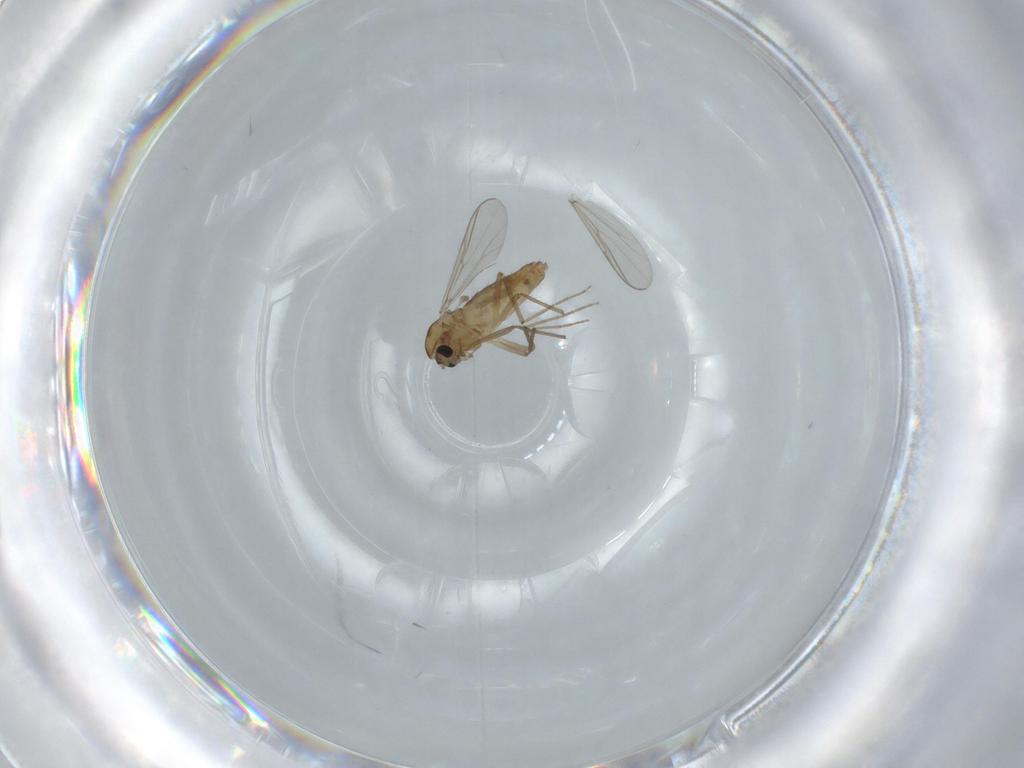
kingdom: Animalia
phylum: Arthropoda
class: Insecta
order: Diptera
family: Chironomidae
